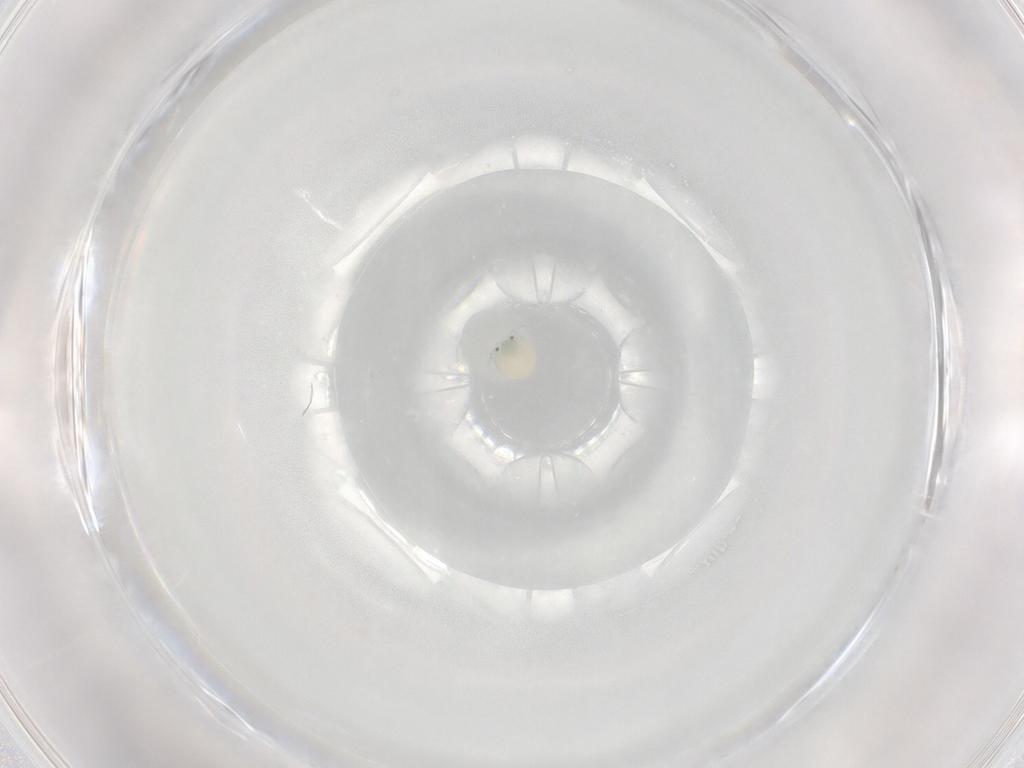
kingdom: Animalia
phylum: Arthropoda
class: Arachnida
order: Trombidiformes
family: Arrenuridae
